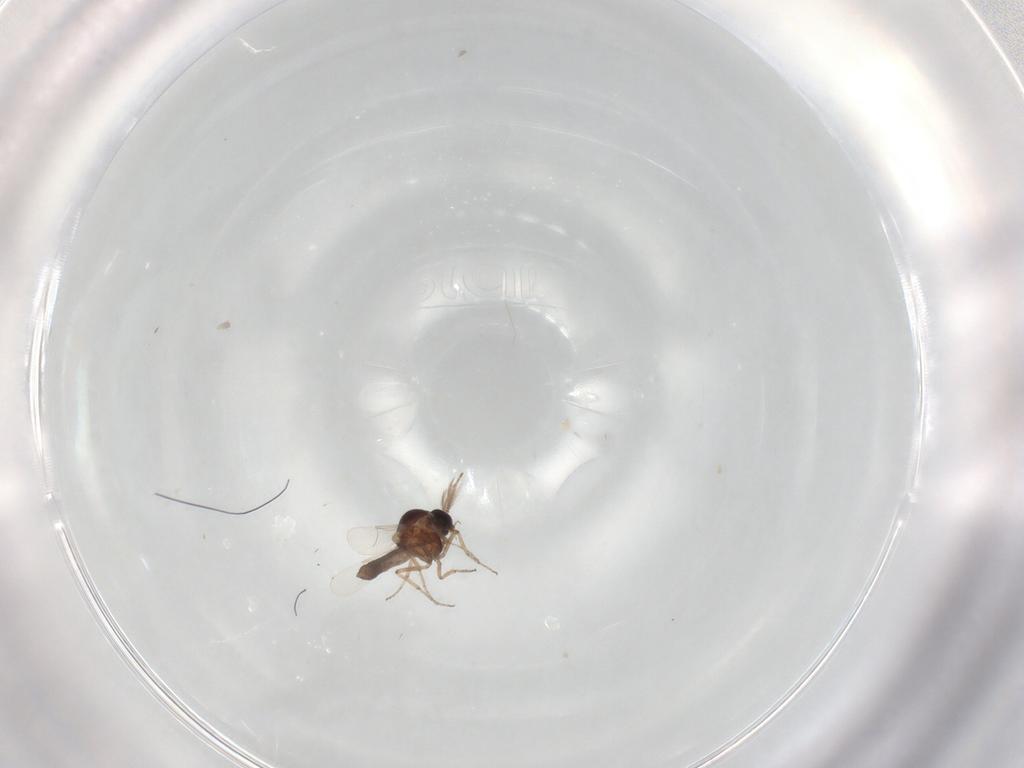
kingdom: Animalia
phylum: Arthropoda
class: Insecta
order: Diptera
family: Ceratopogonidae
